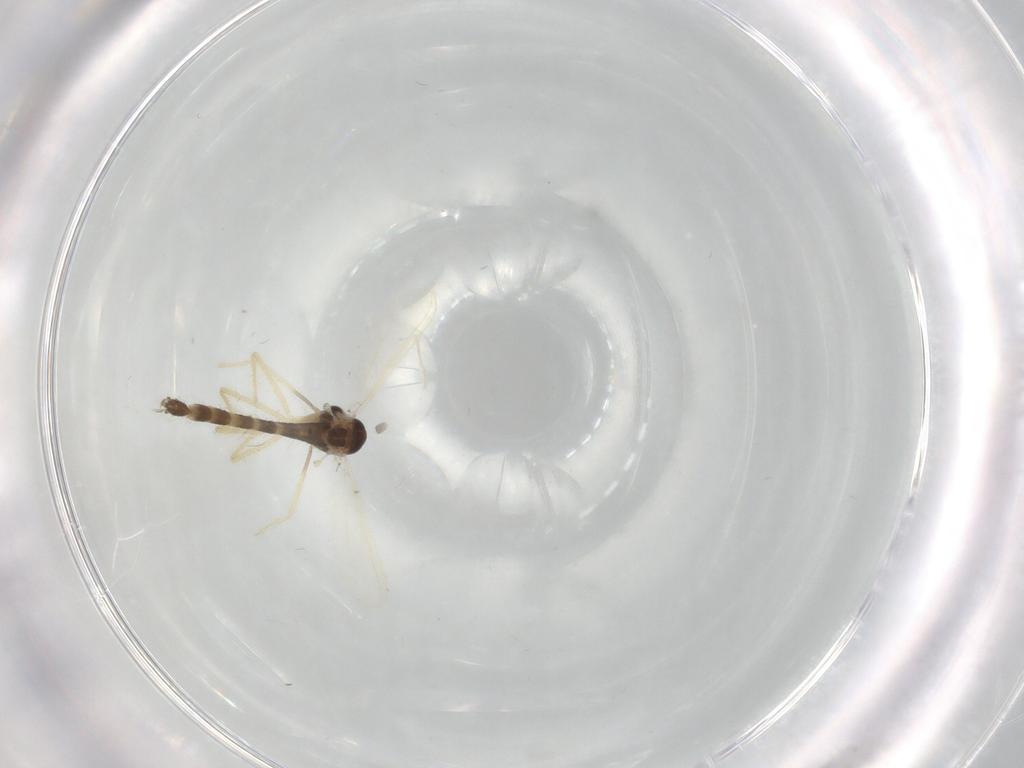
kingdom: Animalia
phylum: Arthropoda
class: Insecta
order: Diptera
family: Chironomidae
